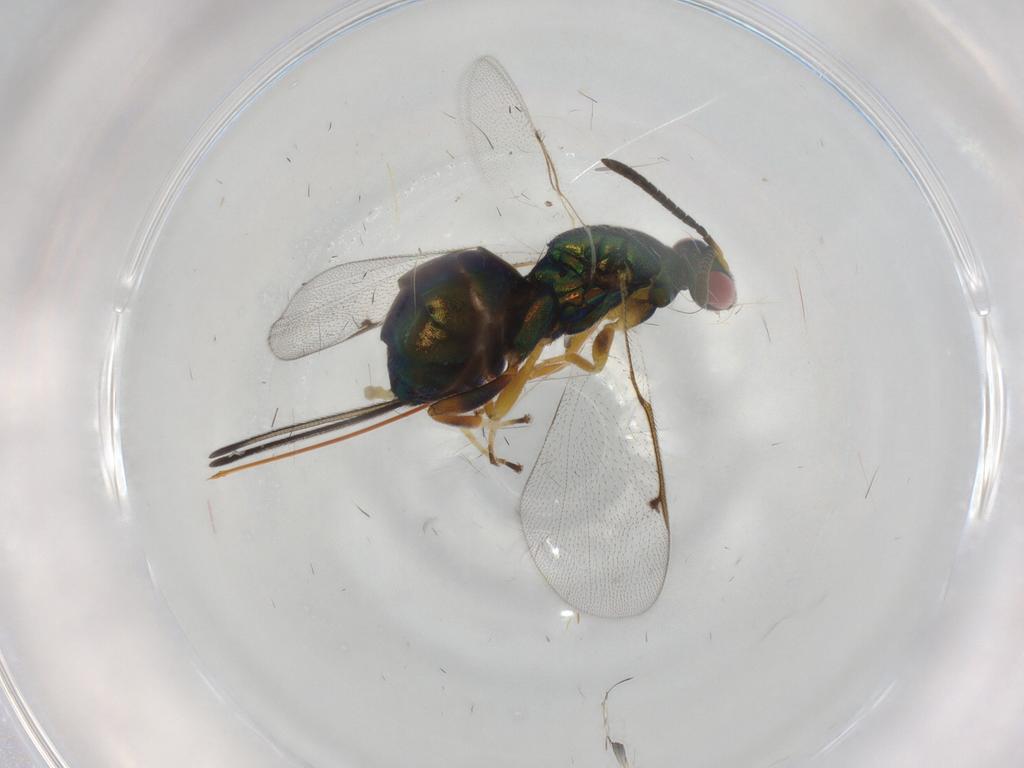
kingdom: Animalia
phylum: Arthropoda
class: Insecta
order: Hymenoptera
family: Torymidae
